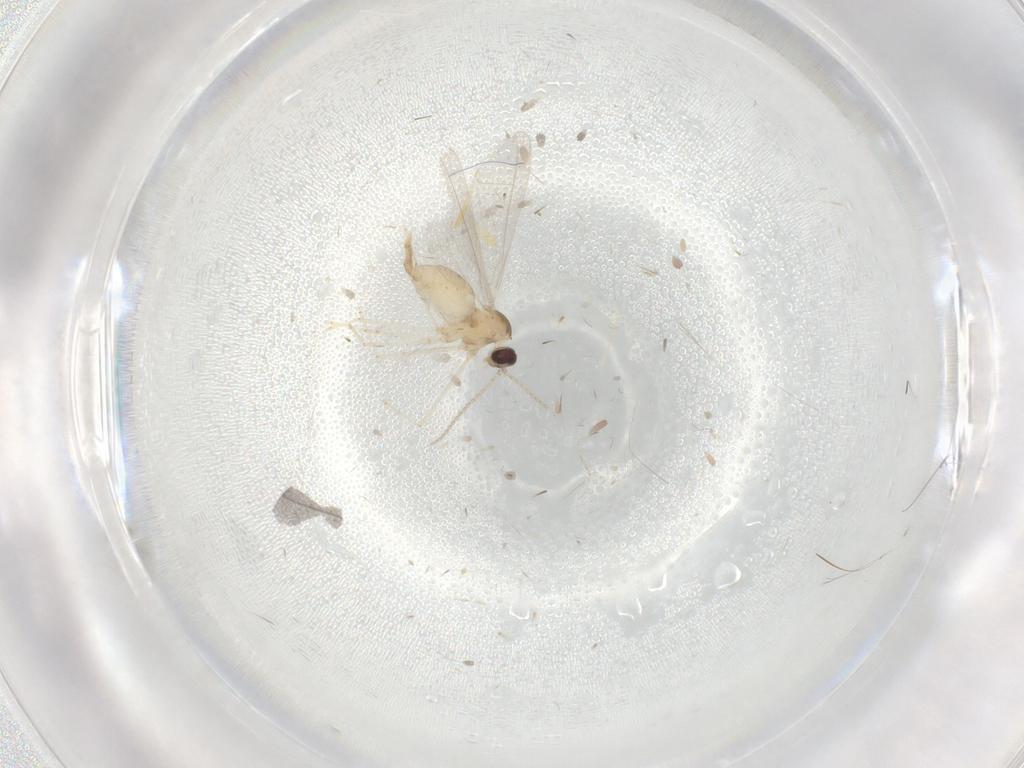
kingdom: Animalia
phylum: Arthropoda
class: Insecta
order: Diptera
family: Cecidomyiidae
